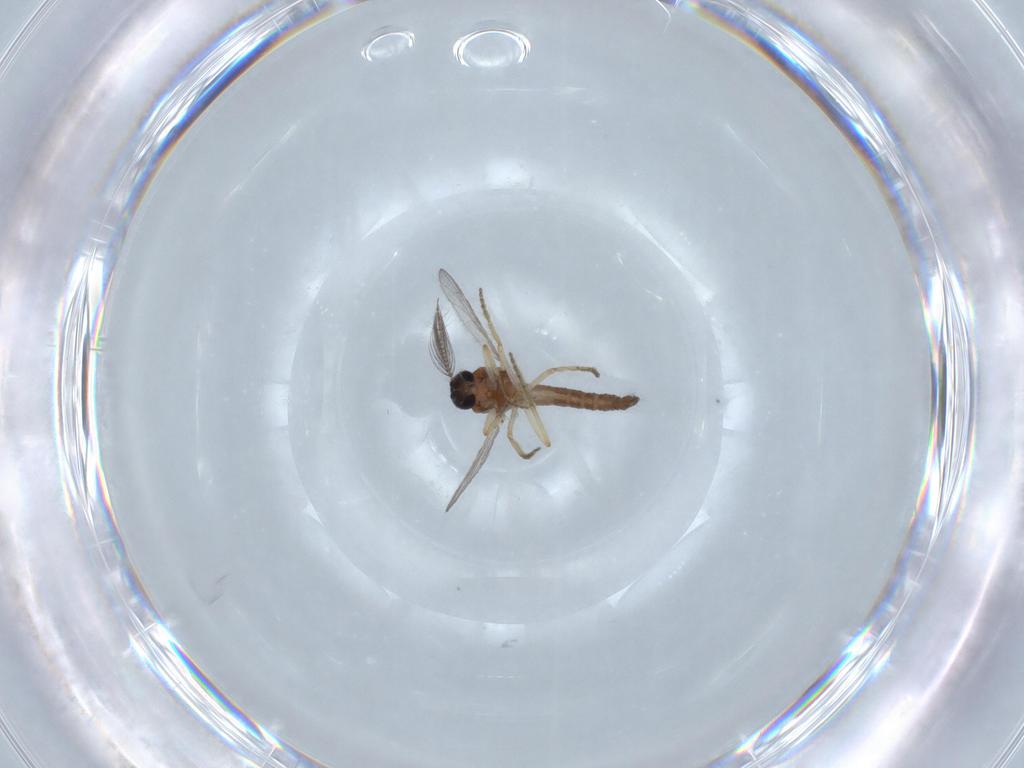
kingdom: Animalia
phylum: Arthropoda
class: Insecta
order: Diptera
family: Ceratopogonidae
